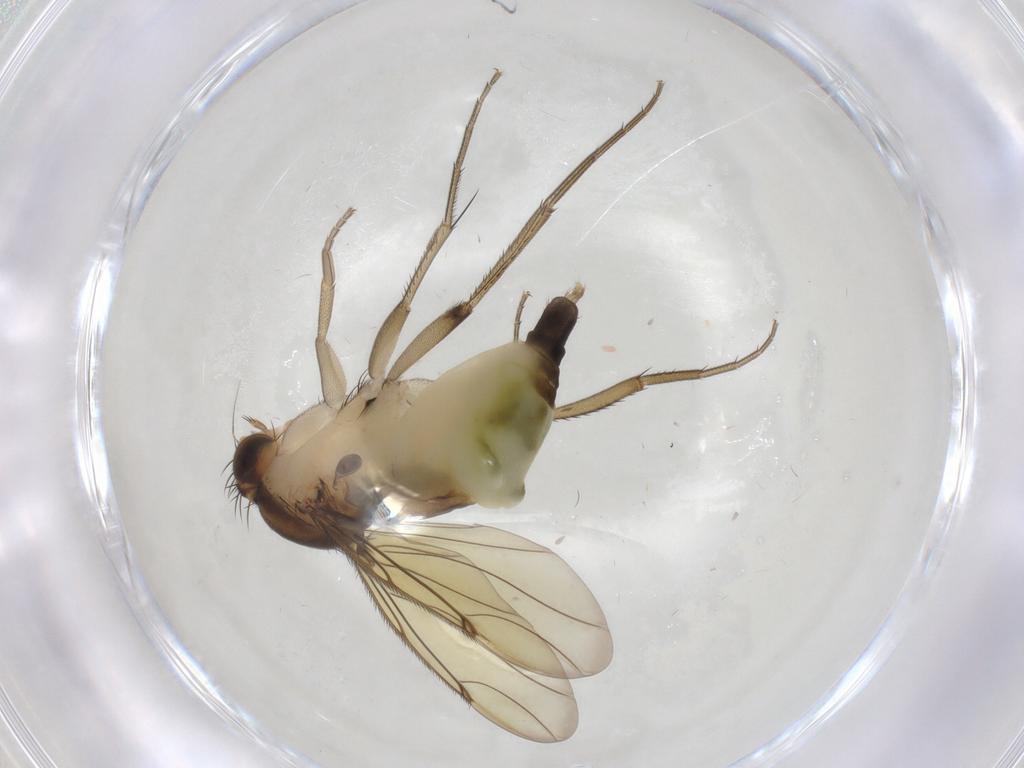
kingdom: Animalia
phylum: Arthropoda
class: Insecta
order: Diptera
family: Phoridae
